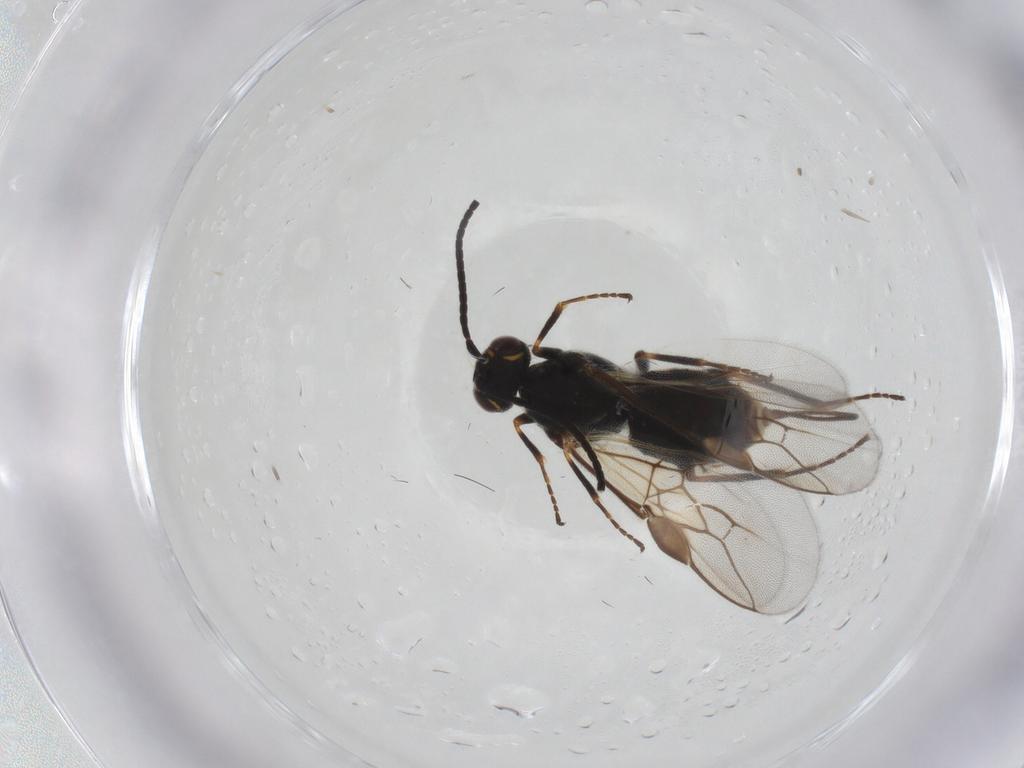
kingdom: Animalia
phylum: Arthropoda
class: Insecta
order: Hymenoptera
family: Braconidae
